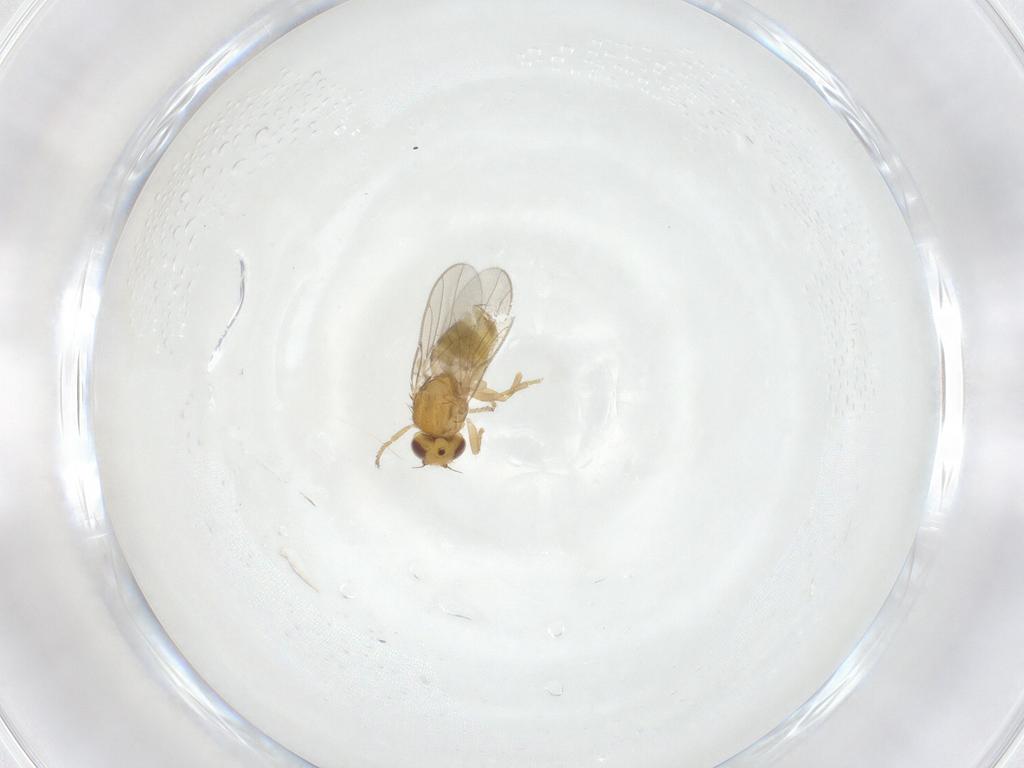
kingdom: Animalia
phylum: Arthropoda
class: Insecta
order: Diptera
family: Chloropidae
